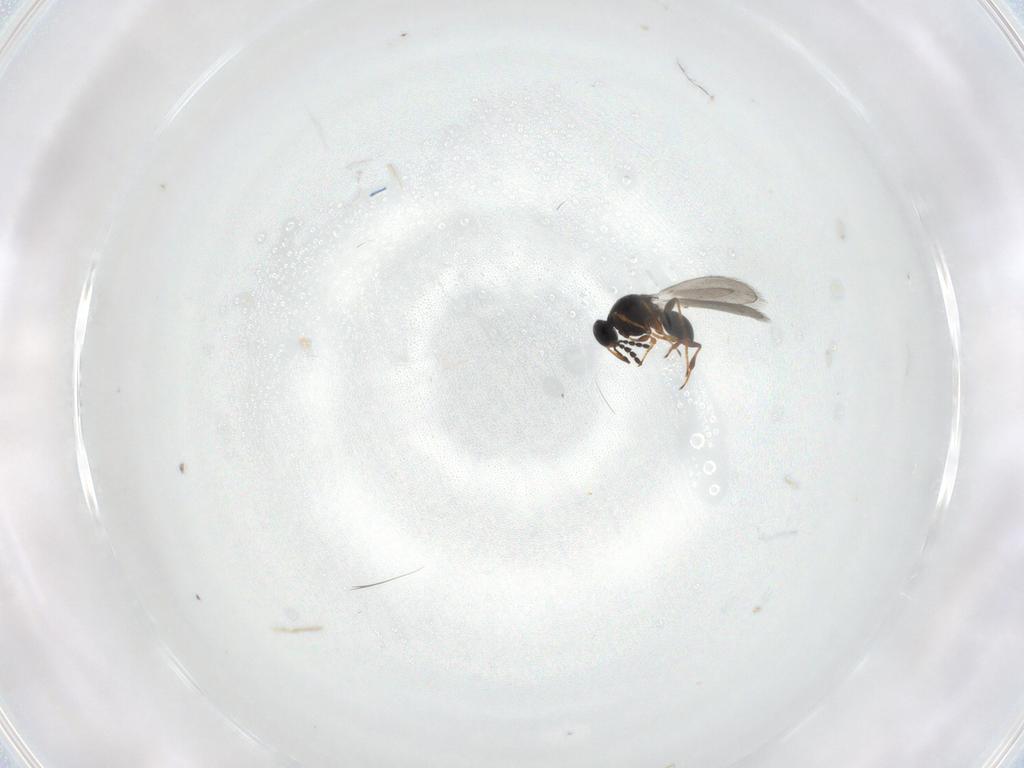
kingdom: Animalia
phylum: Arthropoda
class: Insecta
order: Hymenoptera
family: Platygastridae
